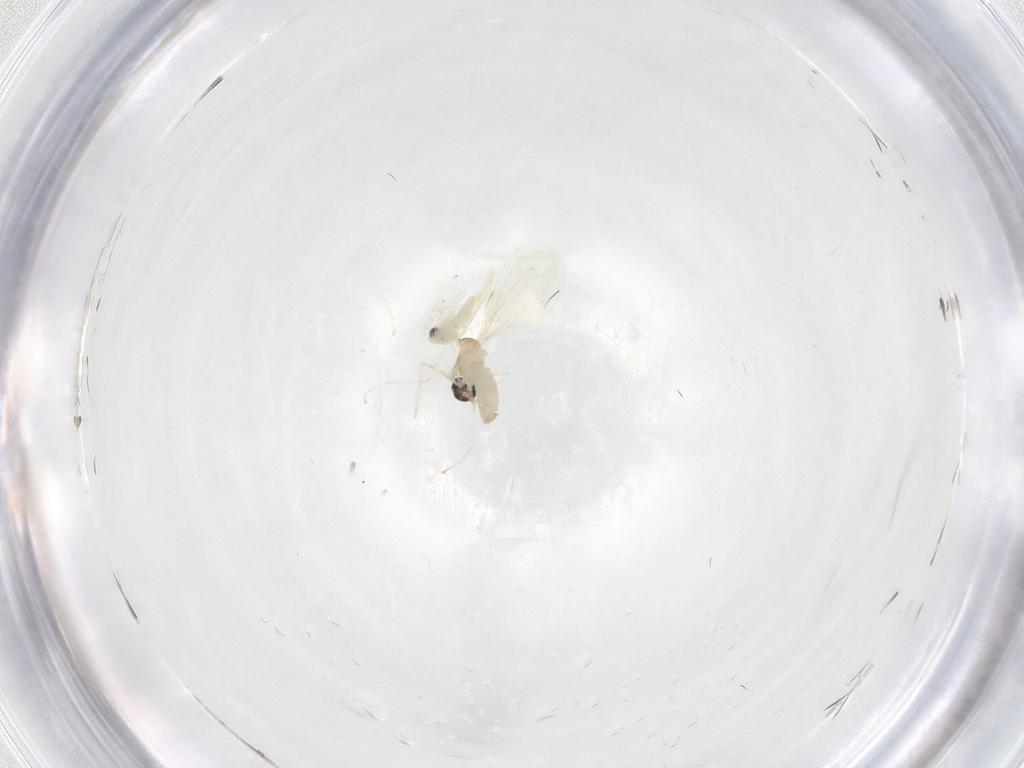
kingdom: Animalia
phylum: Arthropoda
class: Insecta
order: Diptera
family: Cecidomyiidae
